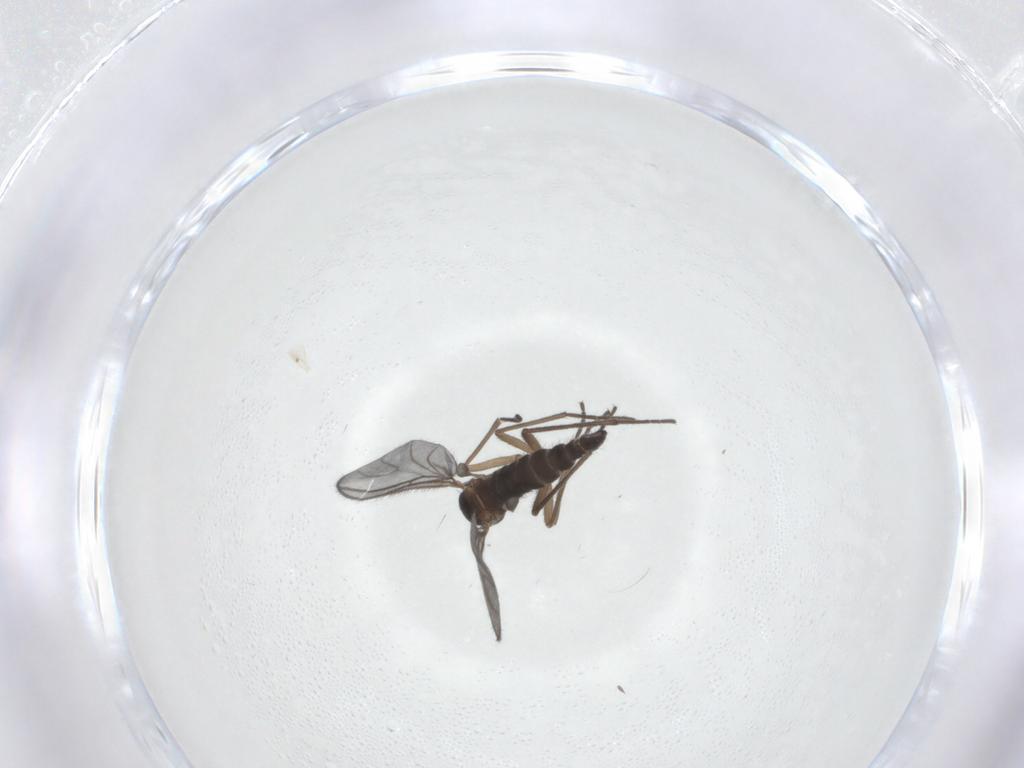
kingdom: Animalia
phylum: Arthropoda
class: Insecta
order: Diptera
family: Sciaridae
